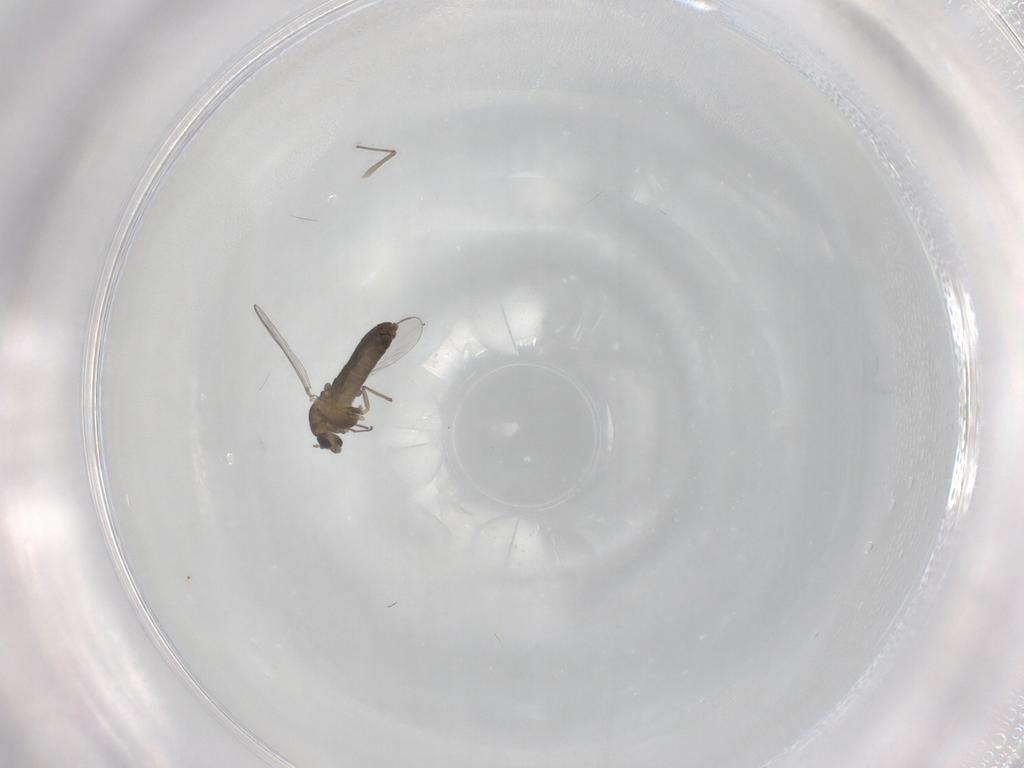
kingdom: Animalia
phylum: Arthropoda
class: Insecta
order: Diptera
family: Chironomidae
